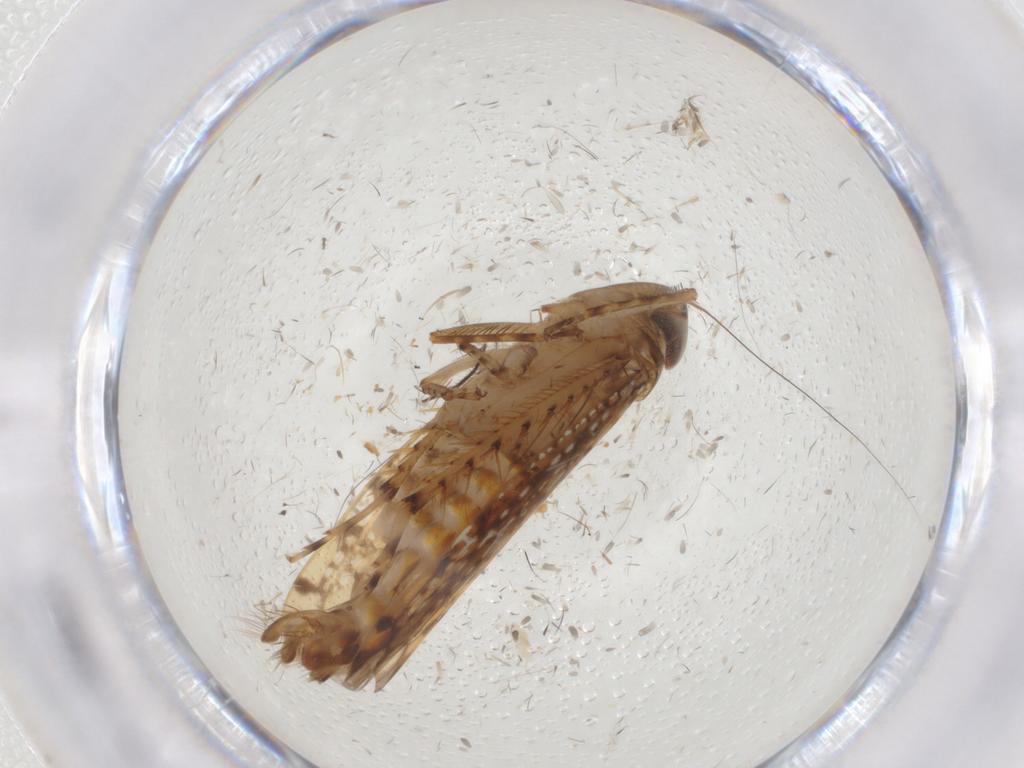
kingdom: Animalia
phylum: Arthropoda
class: Insecta
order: Hemiptera
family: Cicadellidae
